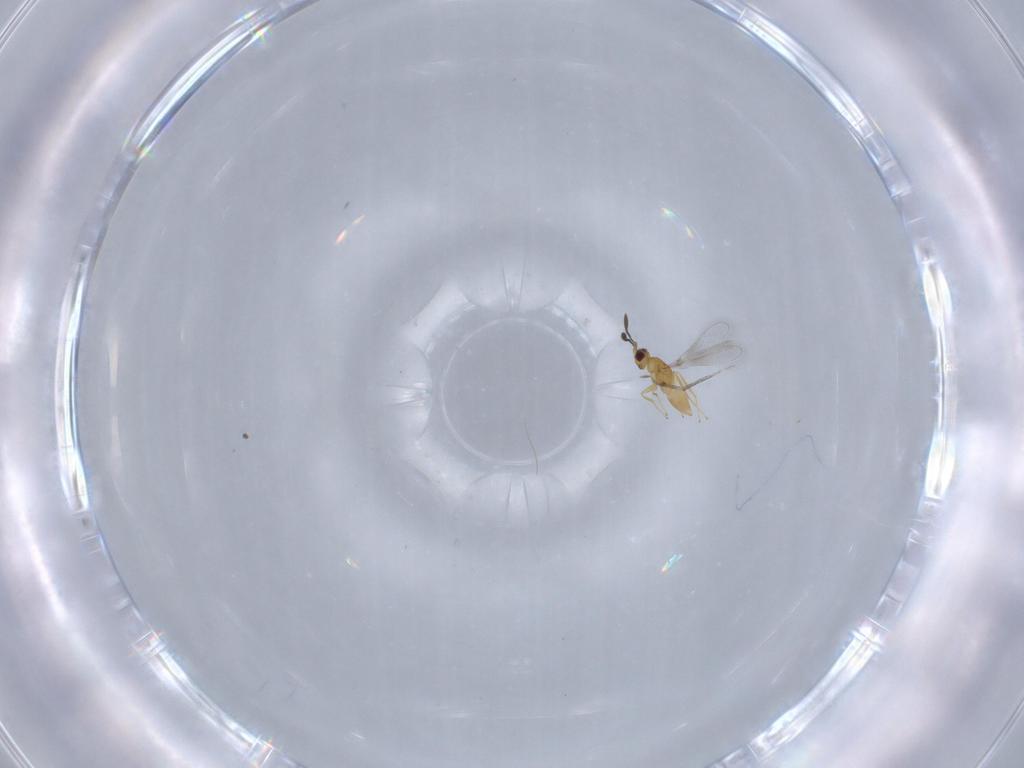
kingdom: Animalia
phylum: Arthropoda
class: Insecta
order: Hymenoptera
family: Mymaridae
